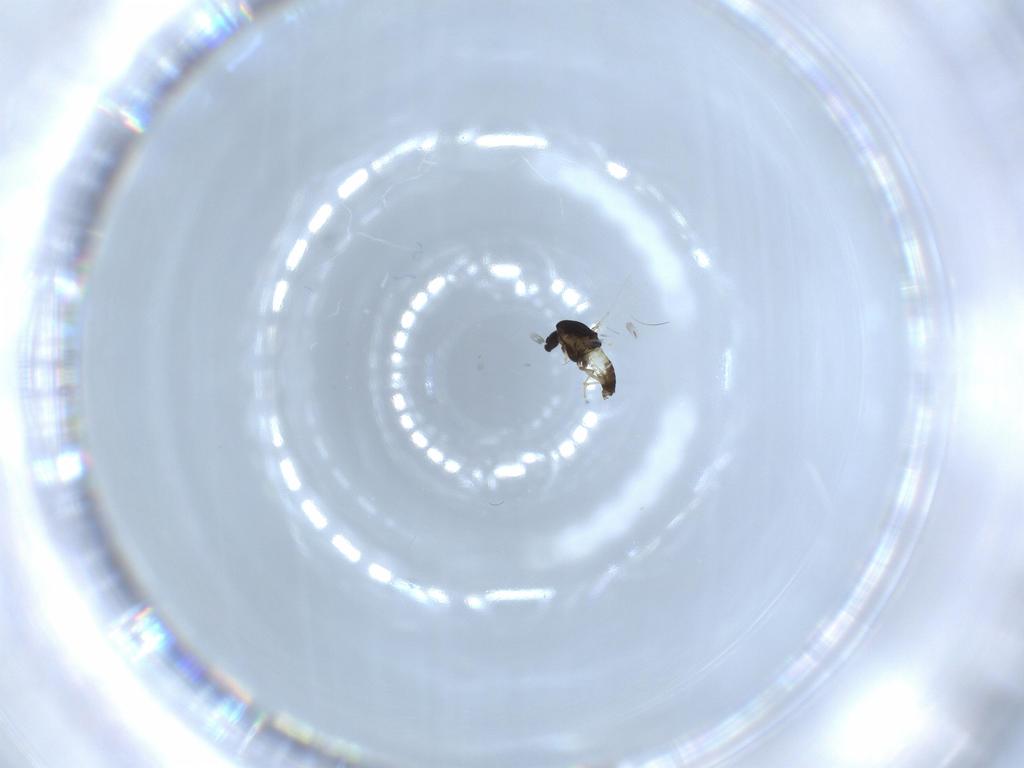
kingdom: Animalia
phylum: Arthropoda
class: Insecta
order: Diptera
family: Chironomidae
